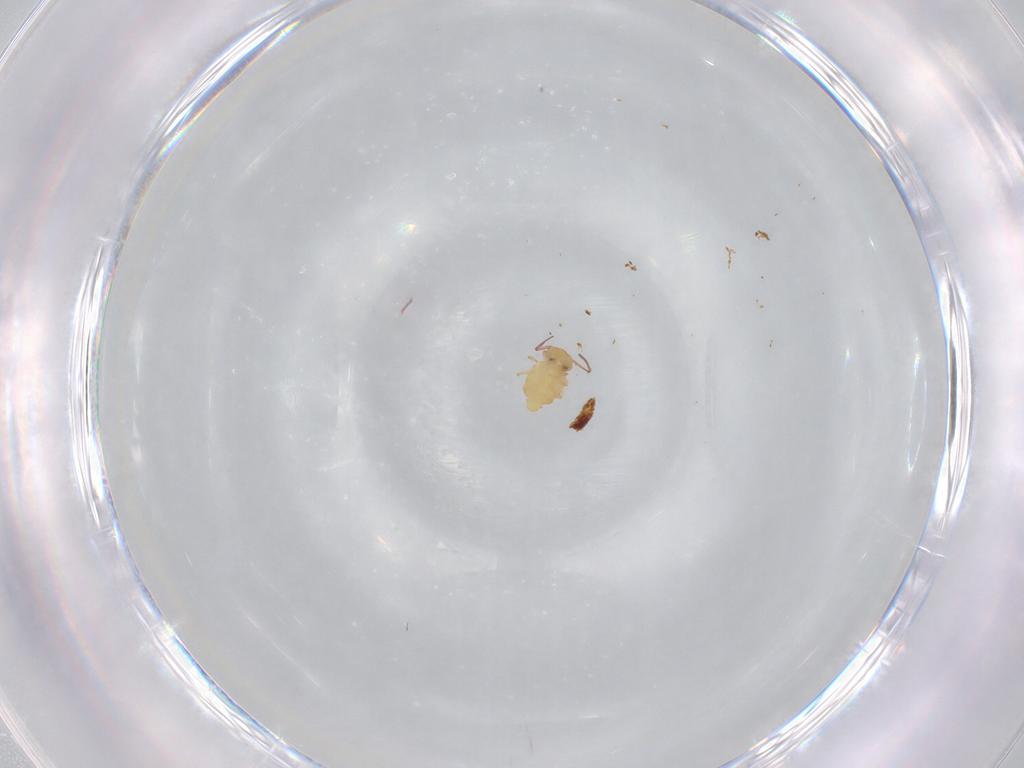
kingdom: Animalia
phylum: Arthropoda
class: Collembola
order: Symphypleona
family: Bourletiellidae
